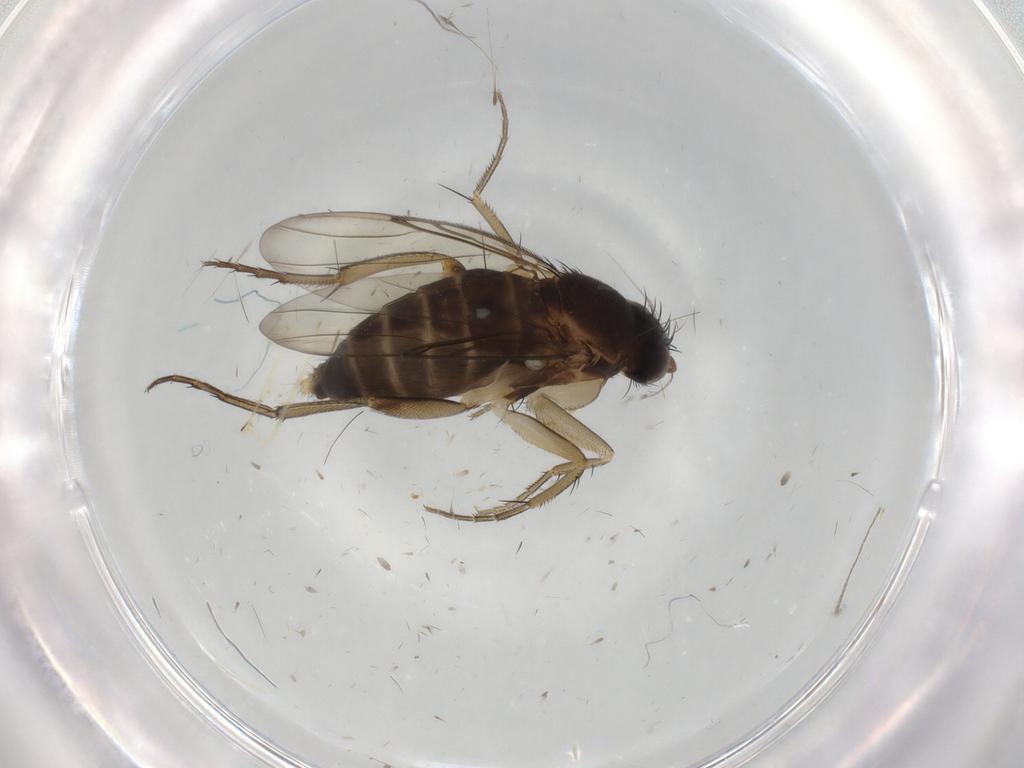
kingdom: Animalia
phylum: Arthropoda
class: Insecta
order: Diptera
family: Phoridae
